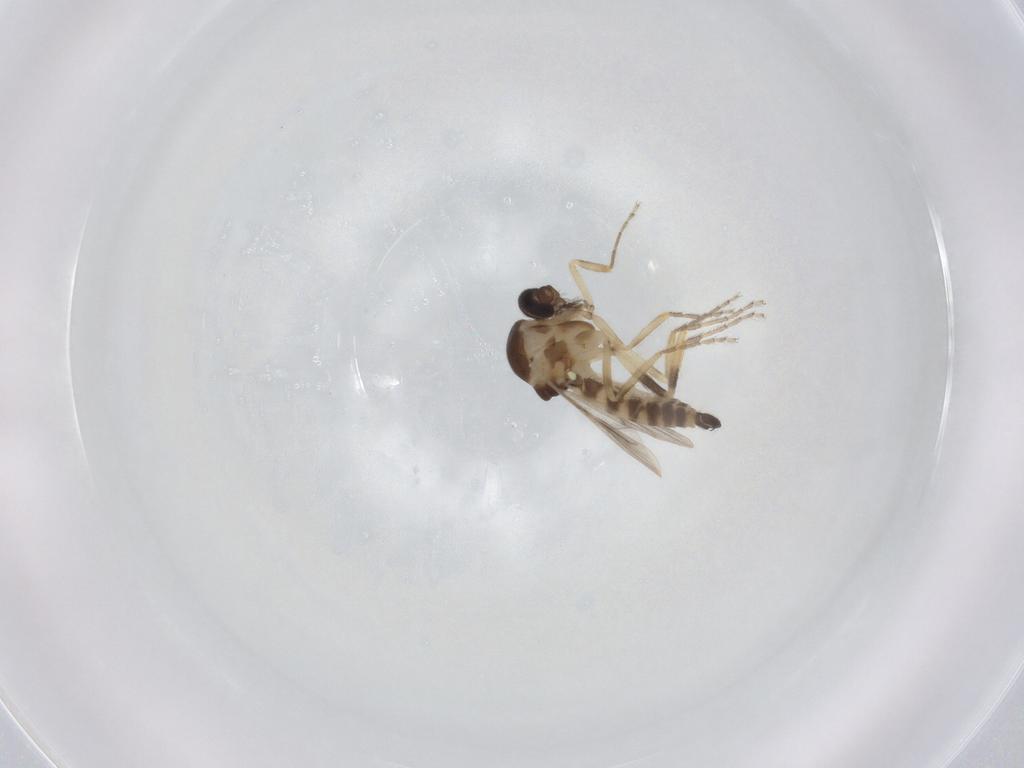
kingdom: Animalia
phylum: Arthropoda
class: Insecta
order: Diptera
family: Ceratopogonidae
